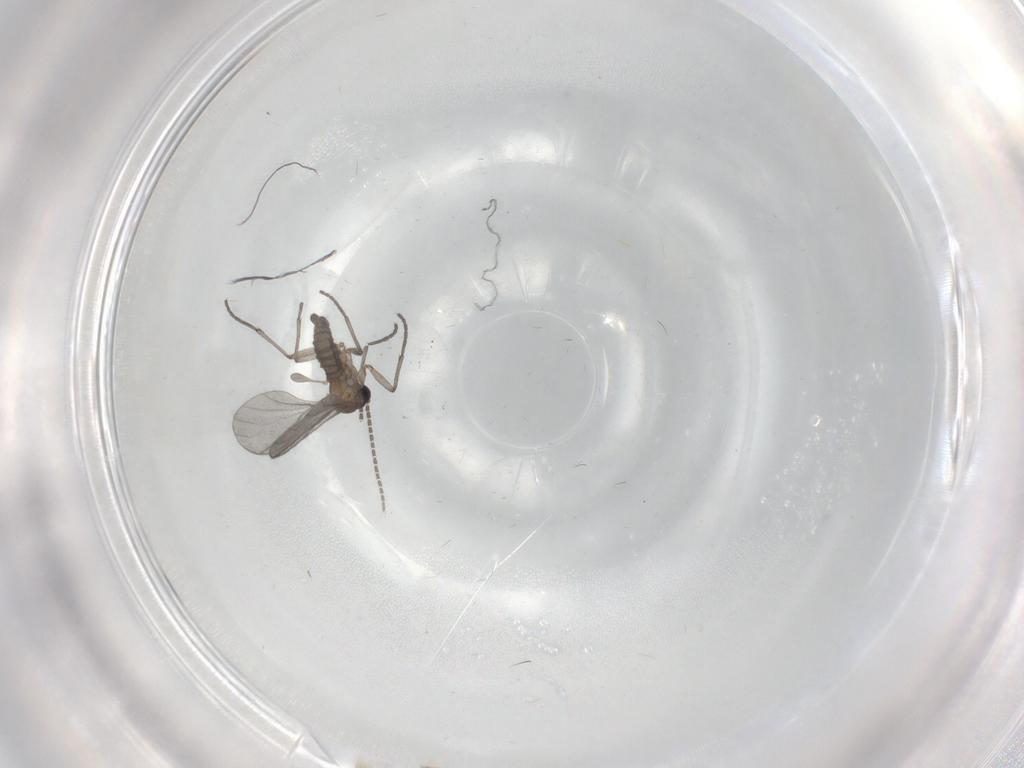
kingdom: Animalia
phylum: Arthropoda
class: Insecta
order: Diptera
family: Sciaridae
